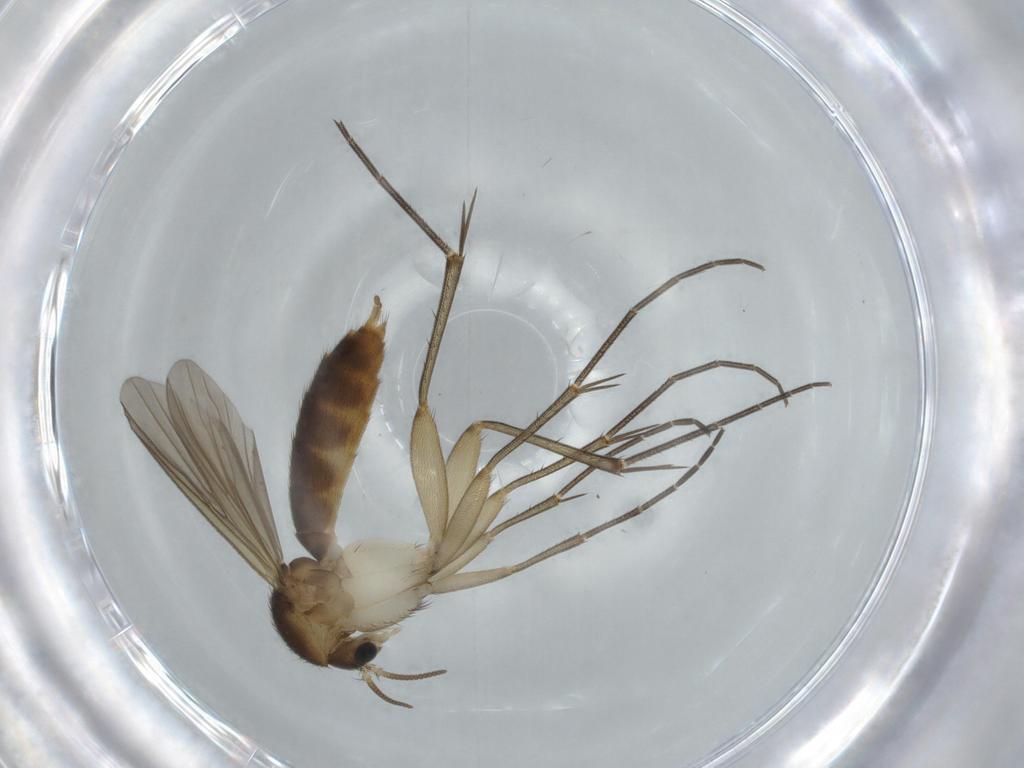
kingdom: Animalia
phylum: Arthropoda
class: Insecta
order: Diptera
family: Mycetophilidae
